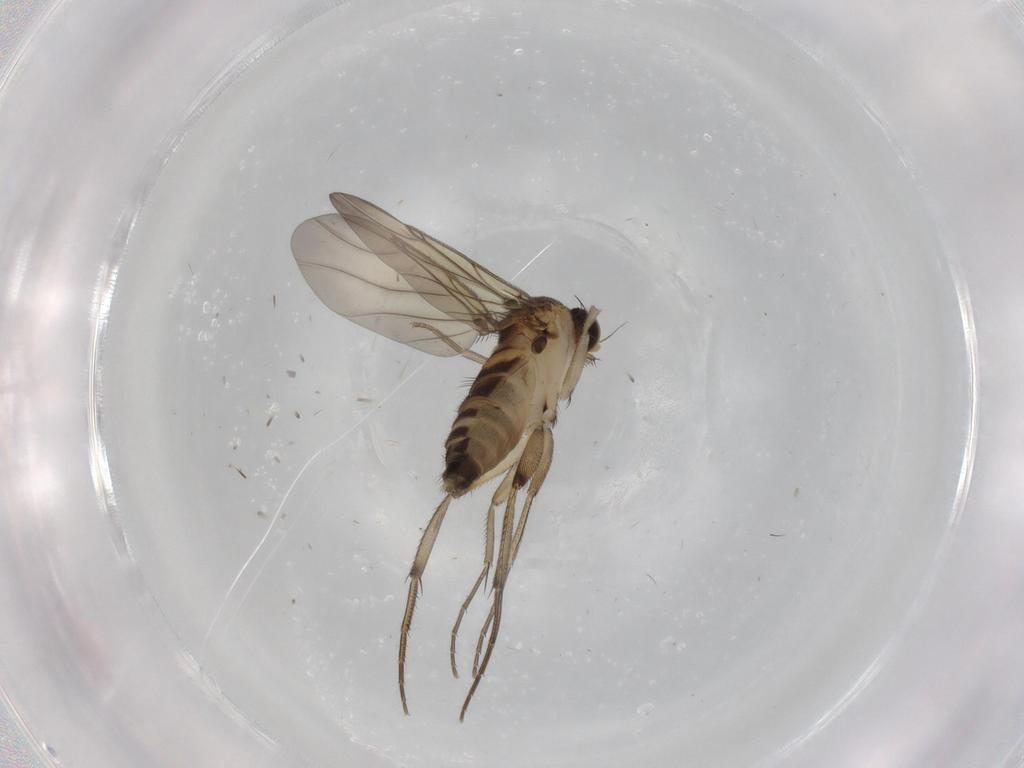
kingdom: Animalia
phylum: Arthropoda
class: Insecta
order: Diptera
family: Phoridae
